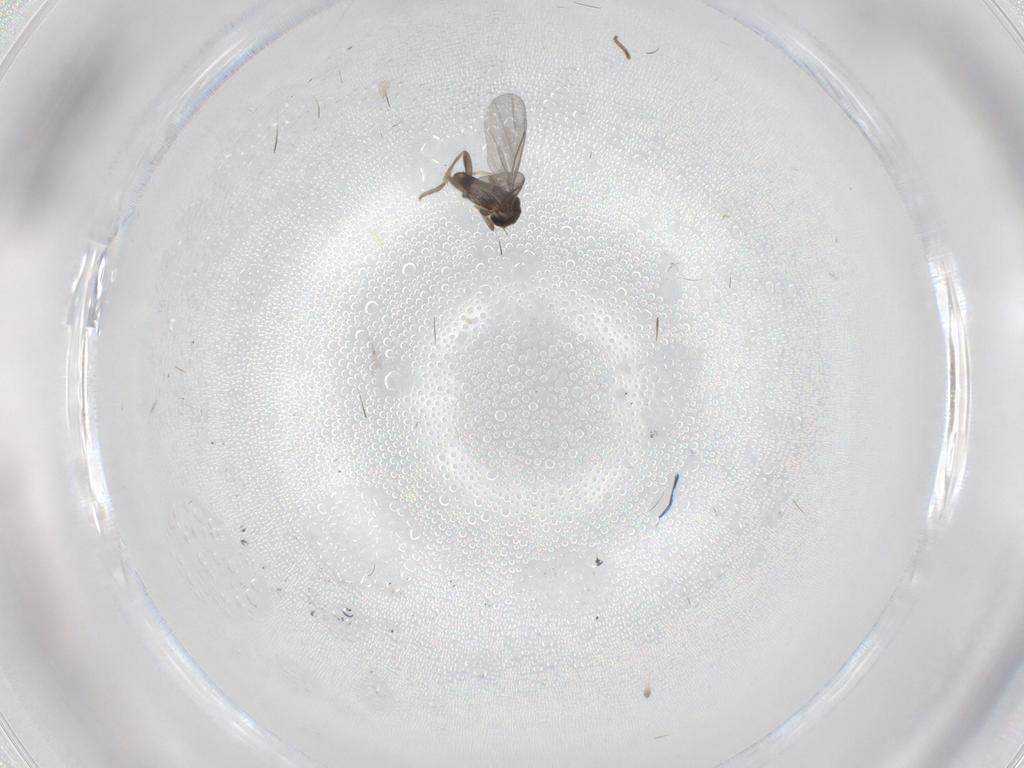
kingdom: Animalia
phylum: Arthropoda
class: Insecta
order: Diptera
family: Cecidomyiidae
